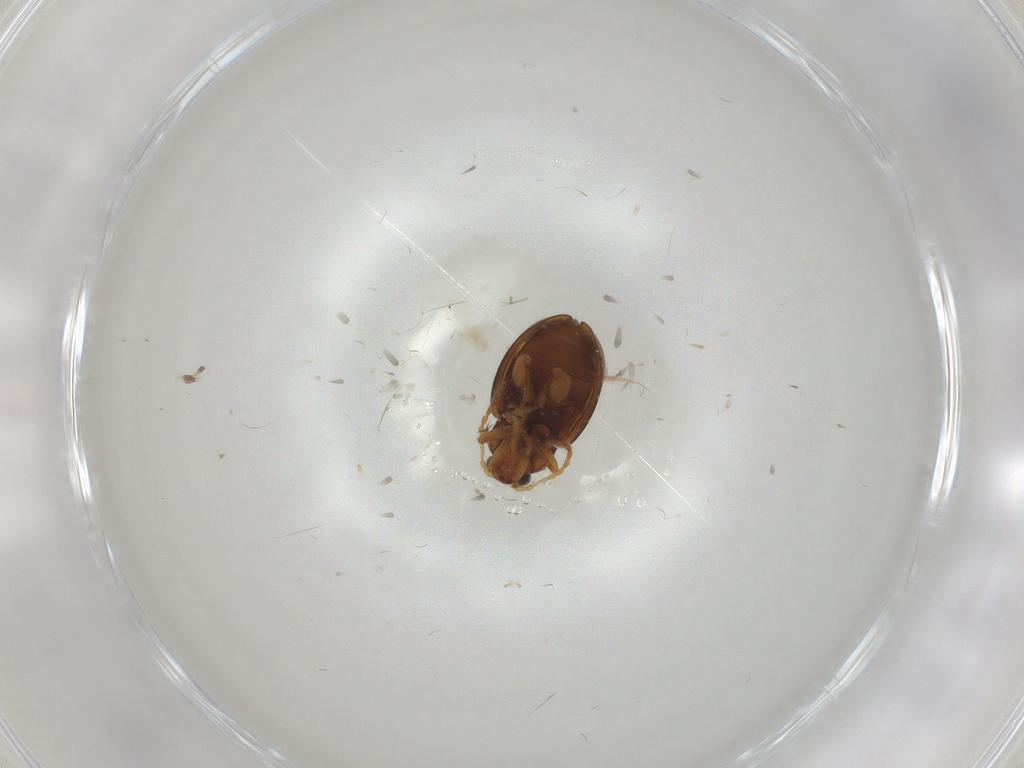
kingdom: Animalia
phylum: Arthropoda
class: Insecta
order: Coleoptera
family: Chrysomelidae
